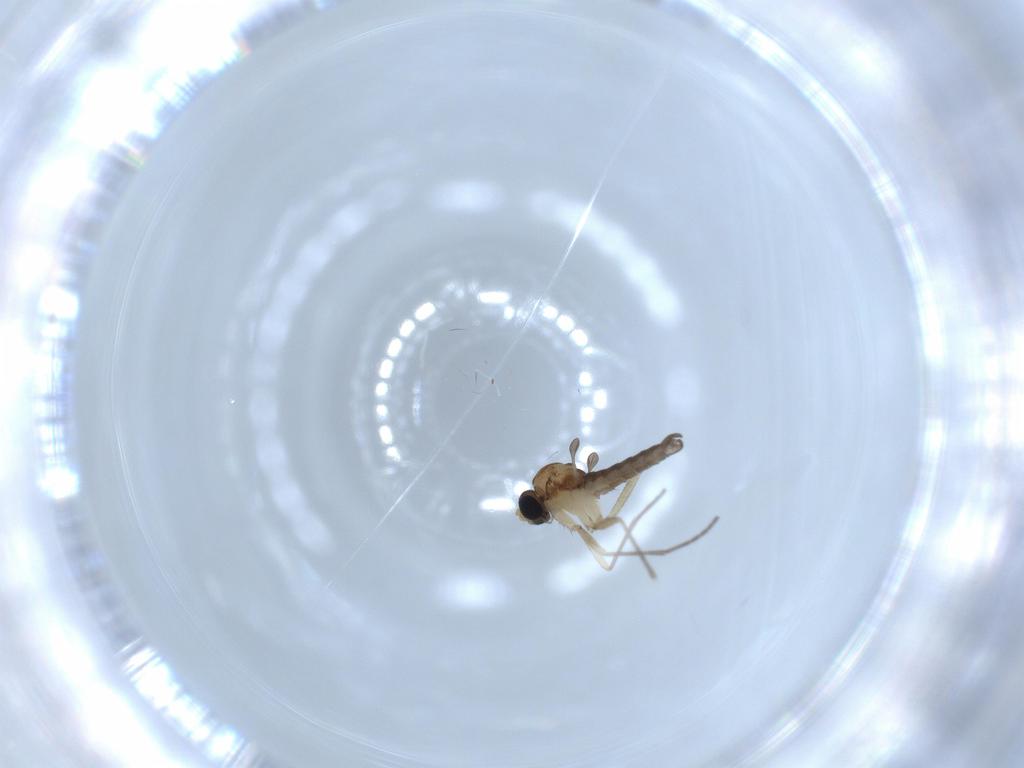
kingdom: Animalia
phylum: Arthropoda
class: Insecta
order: Diptera
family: Sciaridae
